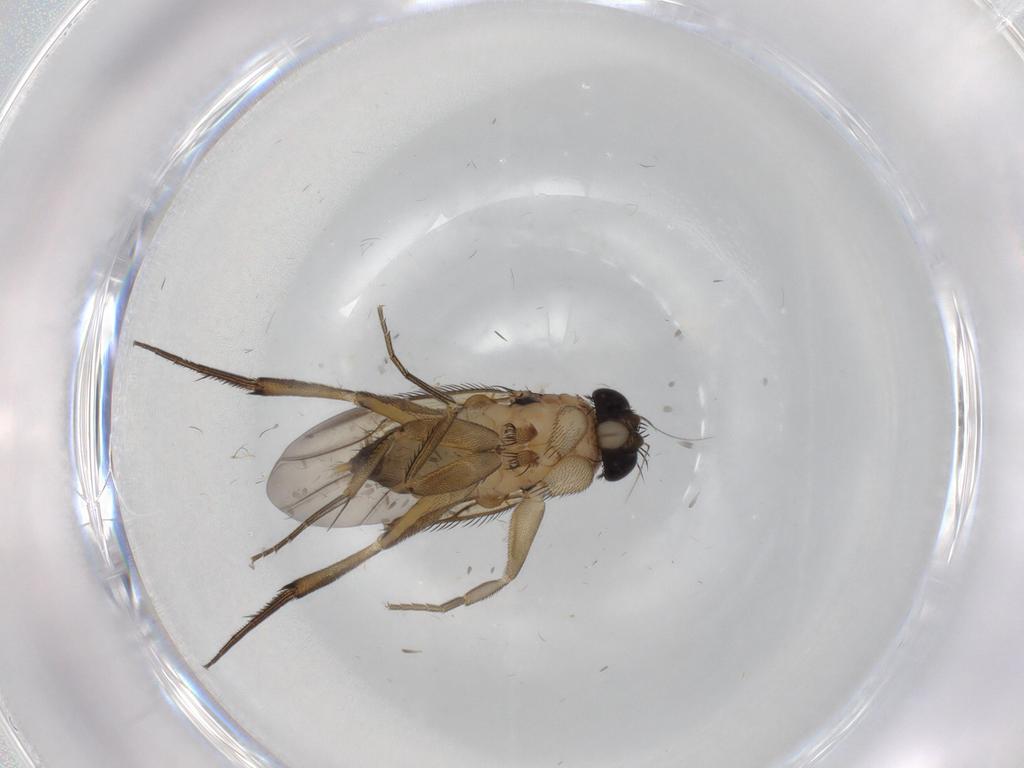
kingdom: Animalia
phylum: Arthropoda
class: Insecta
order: Diptera
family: Phoridae
